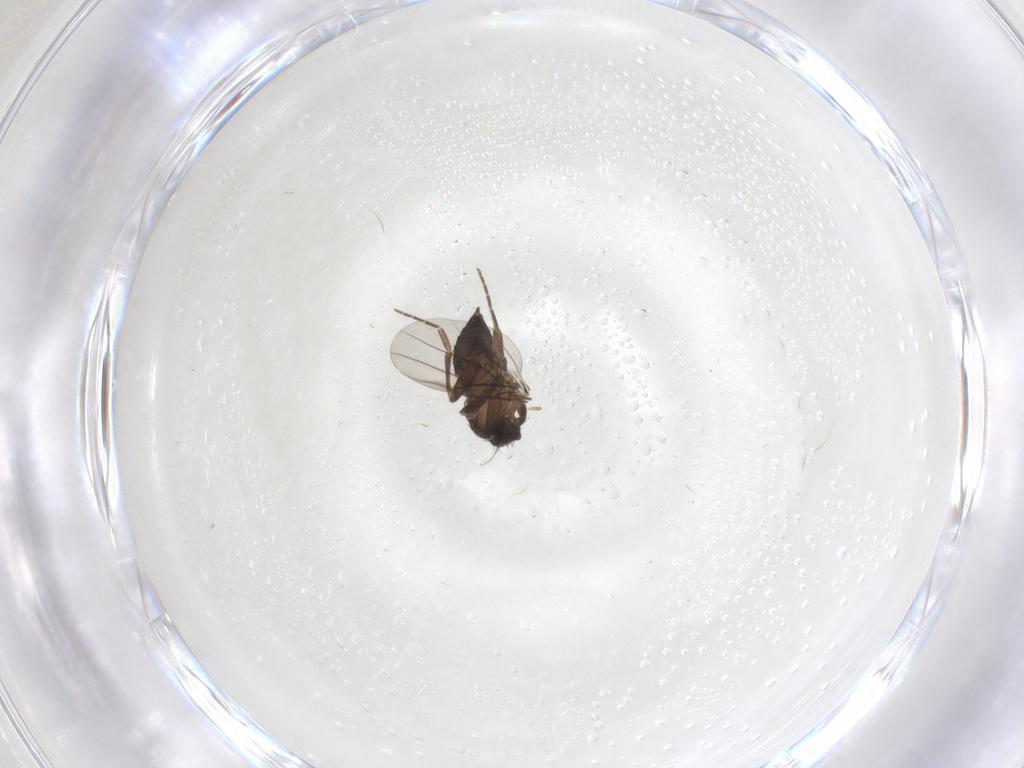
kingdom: Animalia
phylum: Arthropoda
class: Insecta
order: Diptera
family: Phoridae
